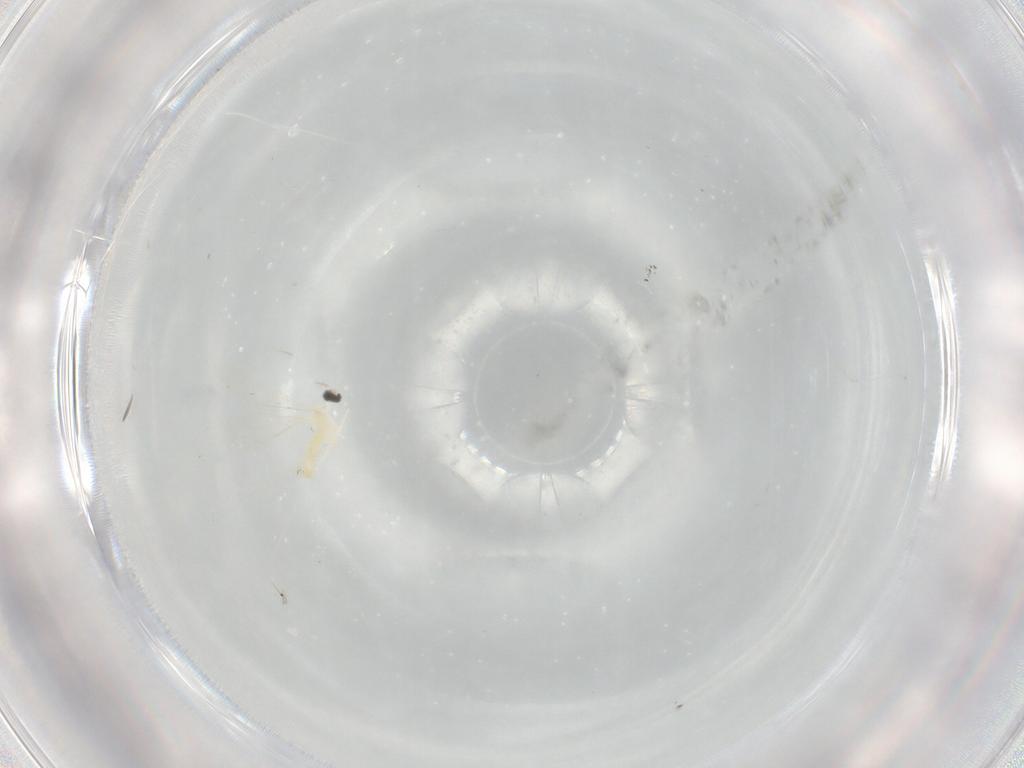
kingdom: Animalia
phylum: Arthropoda
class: Insecta
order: Diptera
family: Cecidomyiidae
